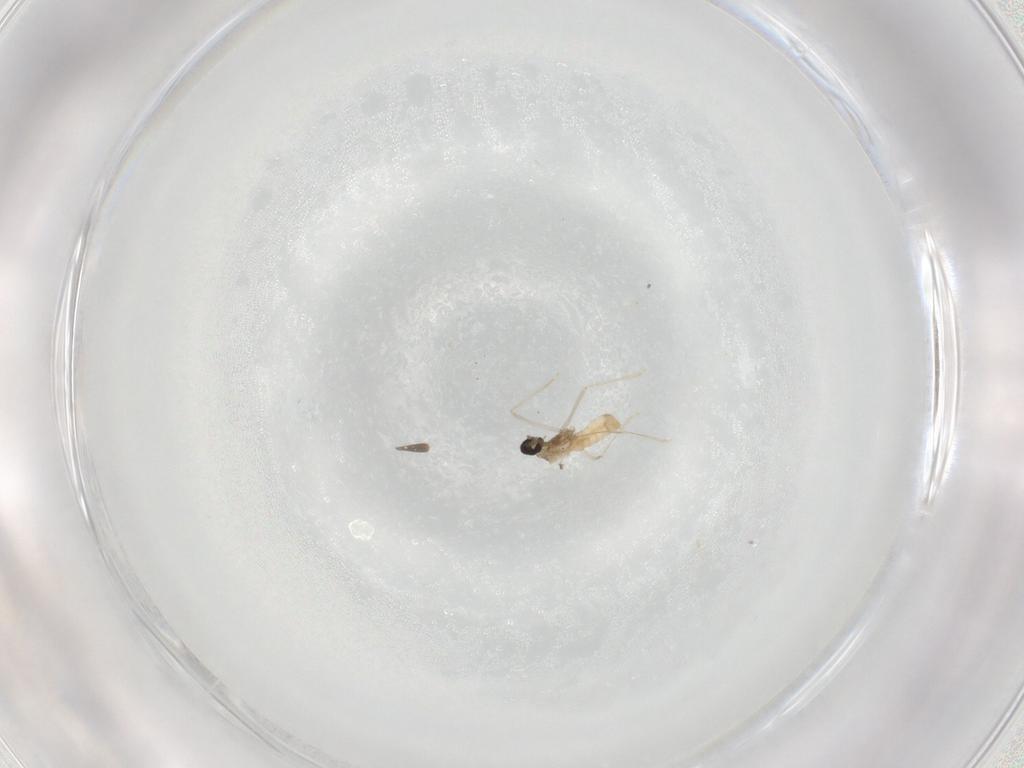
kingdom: Animalia
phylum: Arthropoda
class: Insecta
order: Diptera
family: Cecidomyiidae
